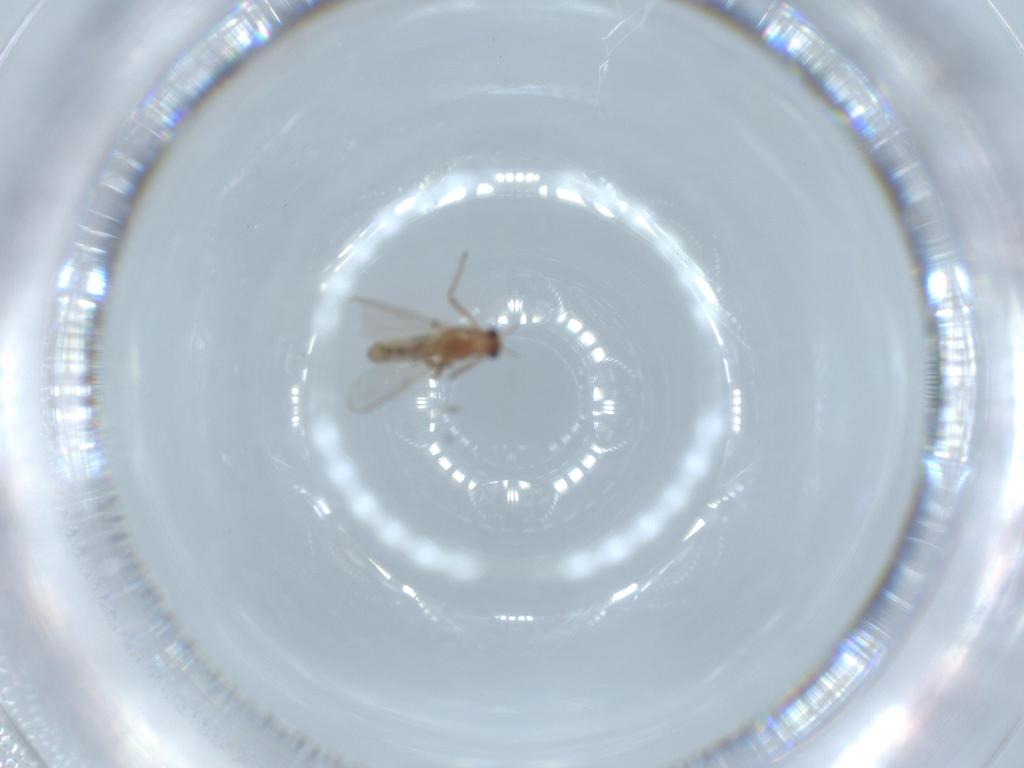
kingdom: Animalia
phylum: Arthropoda
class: Insecta
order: Diptera
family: Chironomidae
